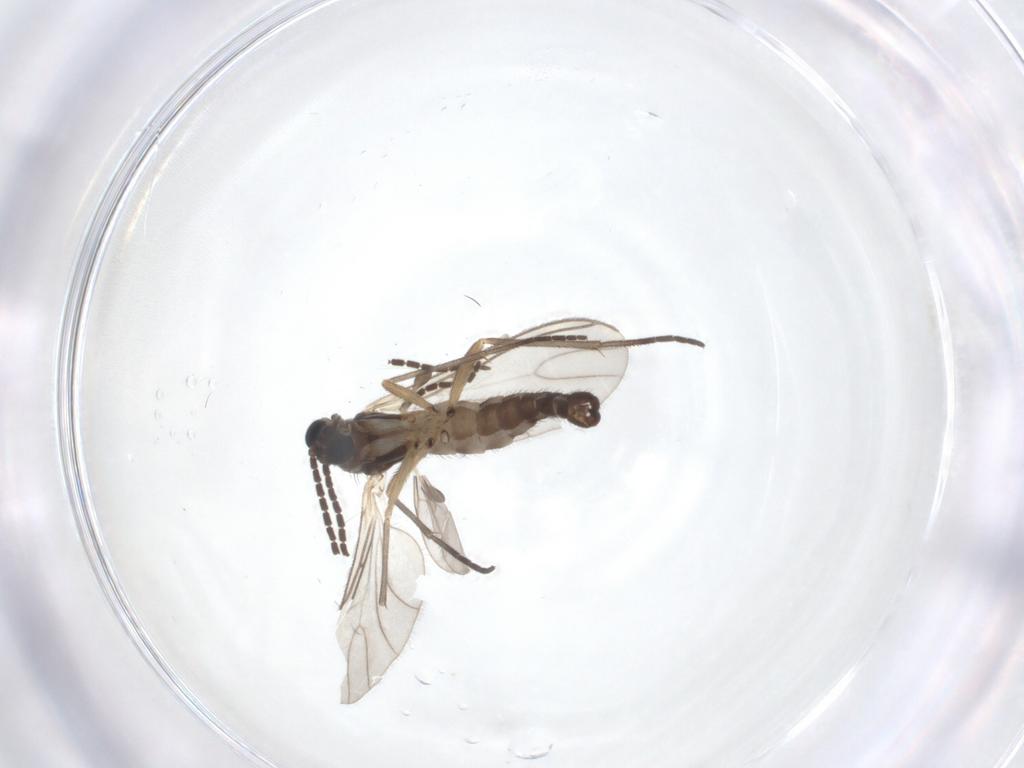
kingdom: Animalia
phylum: Arthropoda
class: Insecta
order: Diptera
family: Sciaridae
